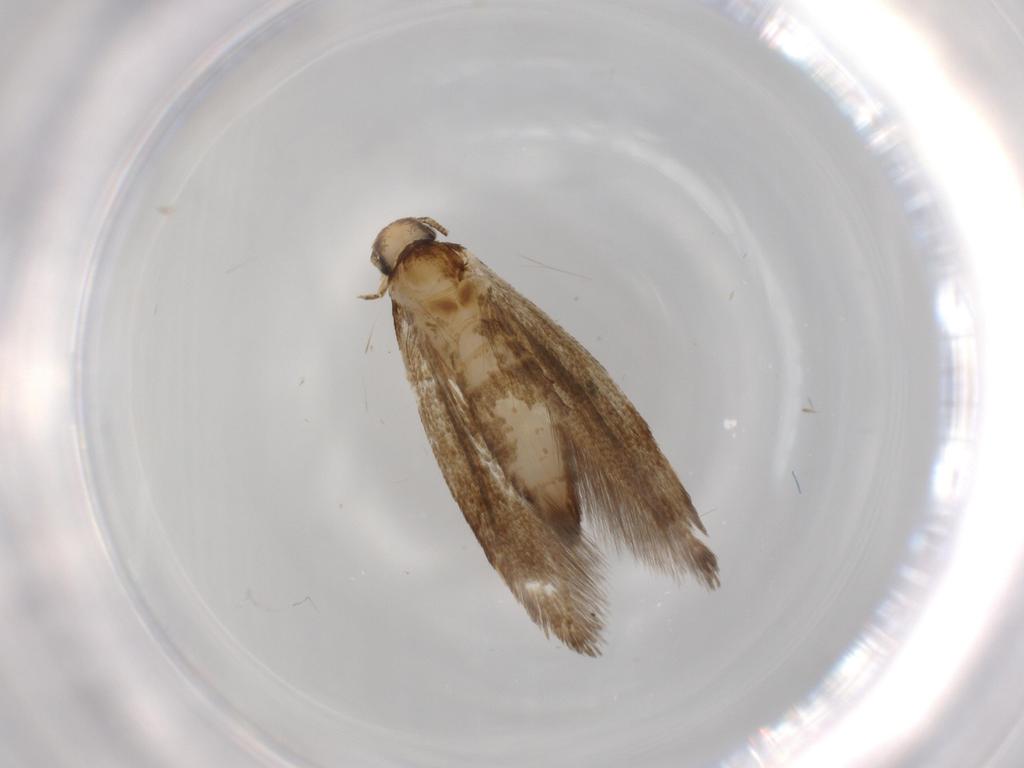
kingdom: Animalia
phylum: Arthropoda
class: Insecta
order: Lepidoptera
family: Tineidae
